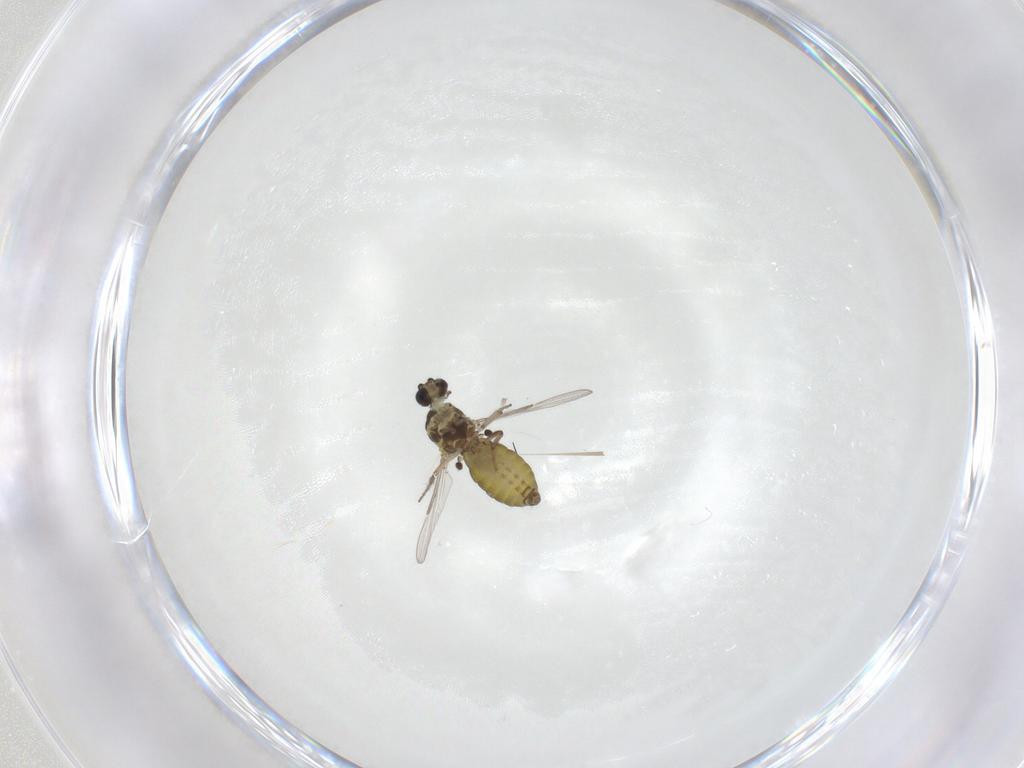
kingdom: Animalia
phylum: Arthropoda
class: Insecta
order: Diptera
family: Ceratopogonidae
